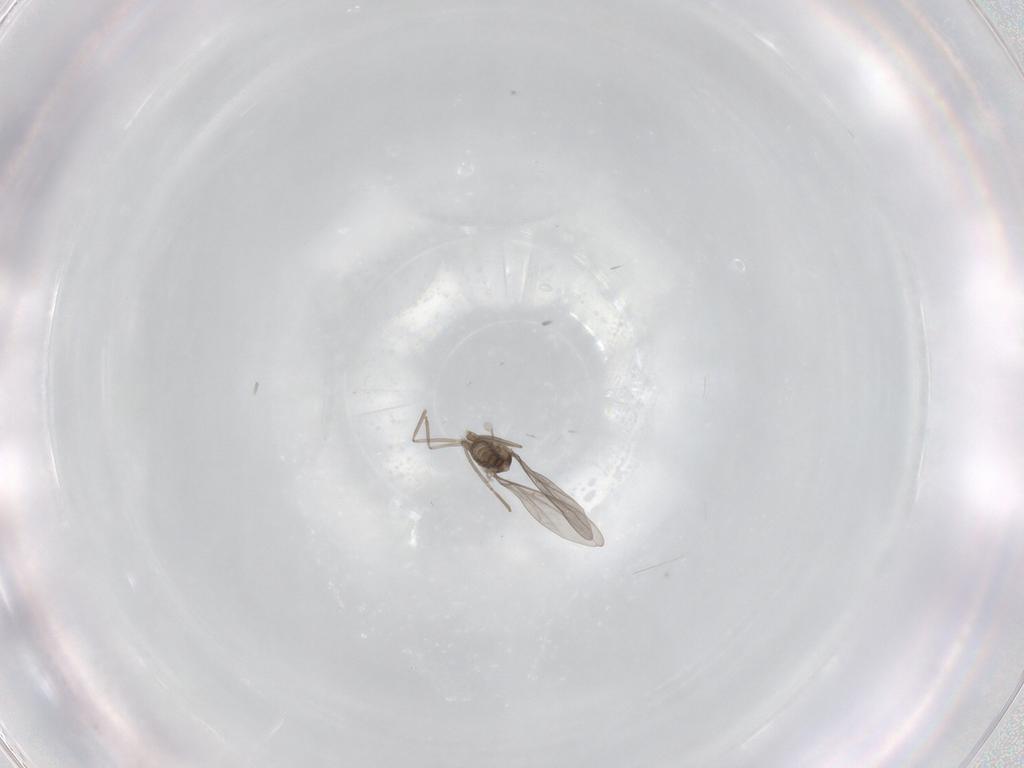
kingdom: Animalia
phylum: Arthropoda
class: Insecta
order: Diptera
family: Cecidomyiidae
